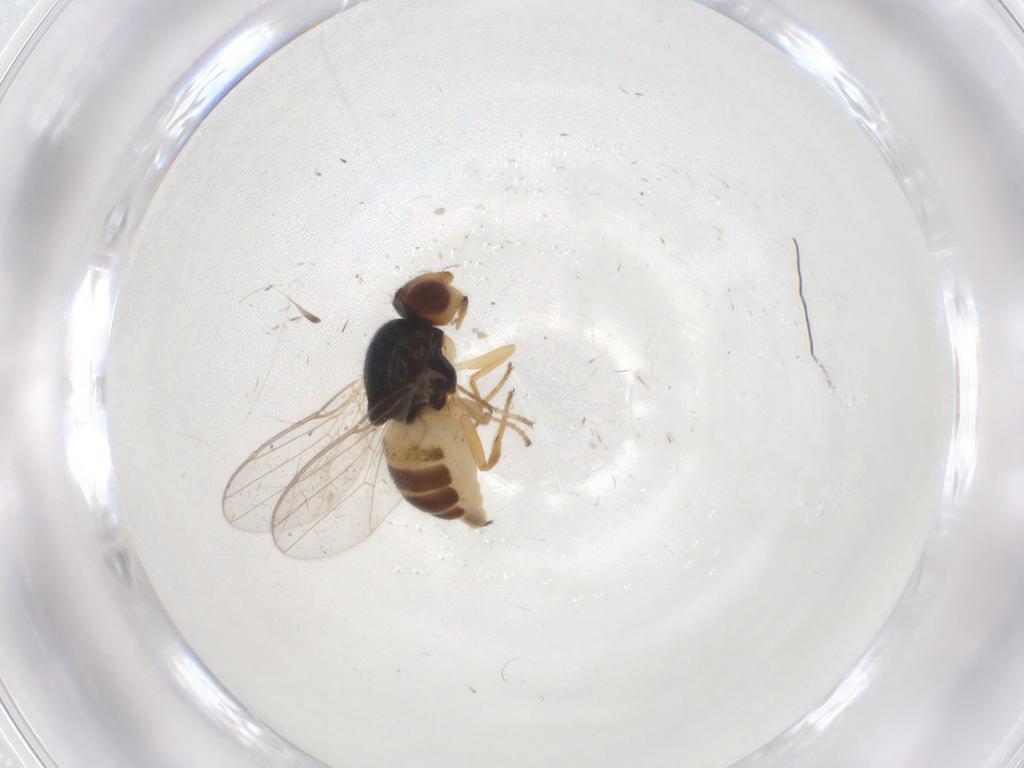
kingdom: Animalia
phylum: Arthropoda
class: Insecta
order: Diptera
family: Chloropidae
